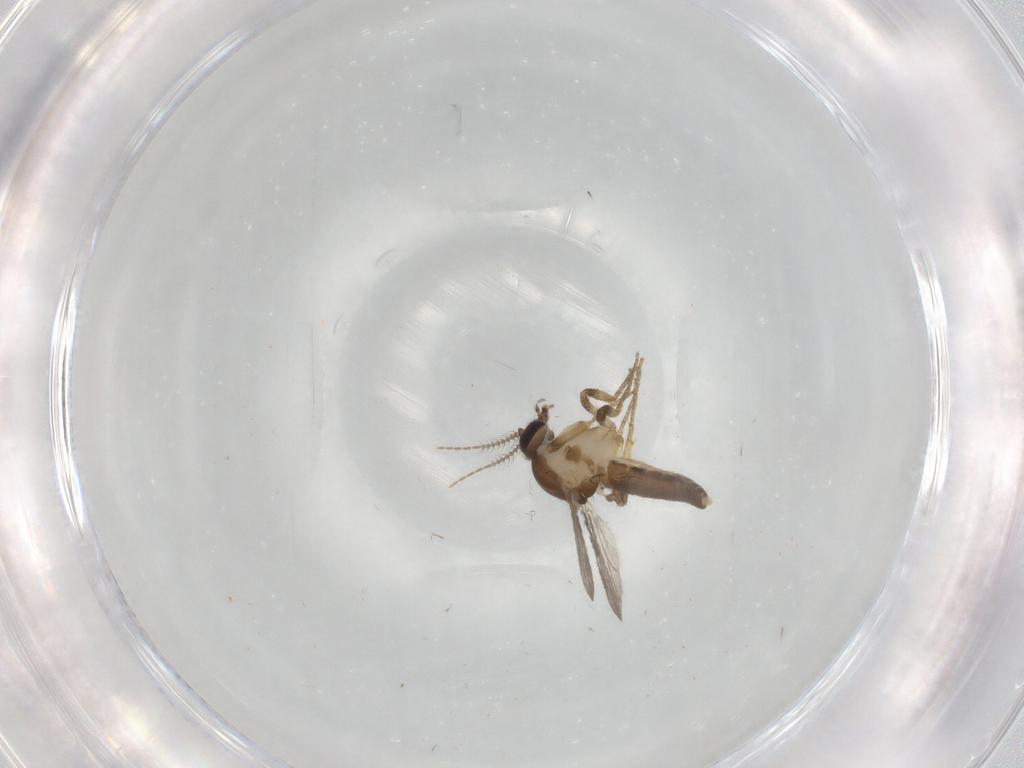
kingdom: Animalia
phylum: Arthropoda
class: Insecta
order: Diptera
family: Ceratopogonidae
